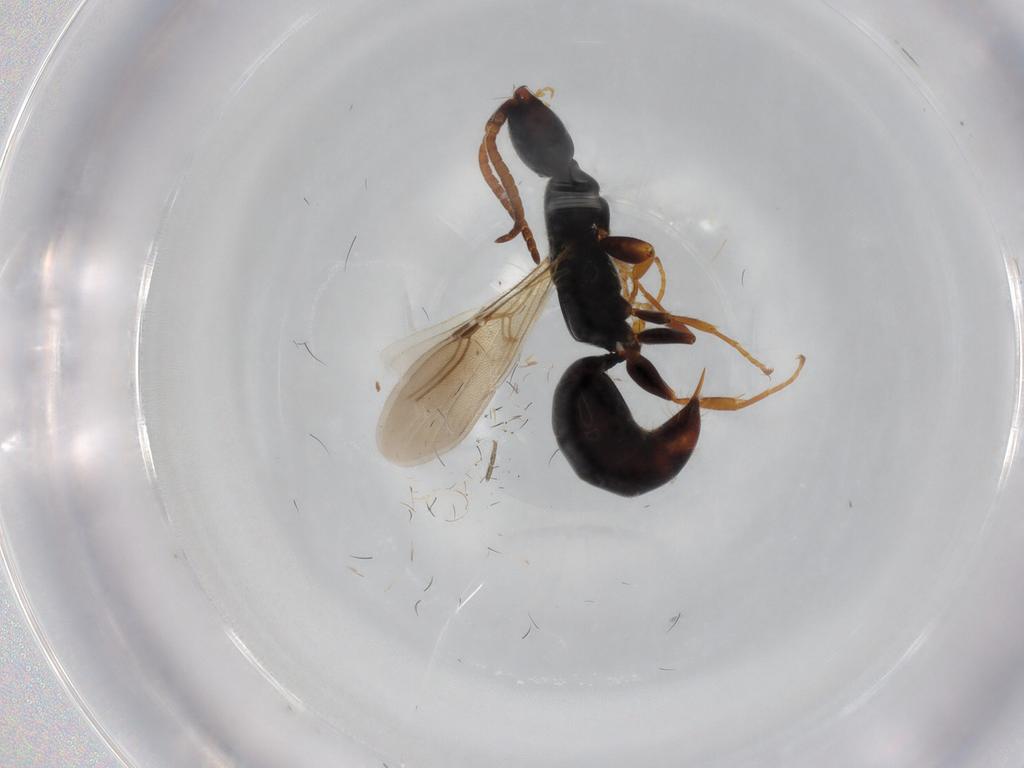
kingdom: Animalia
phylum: Arthropoda
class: Insecta
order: Hymenoptera
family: Bethylidae
